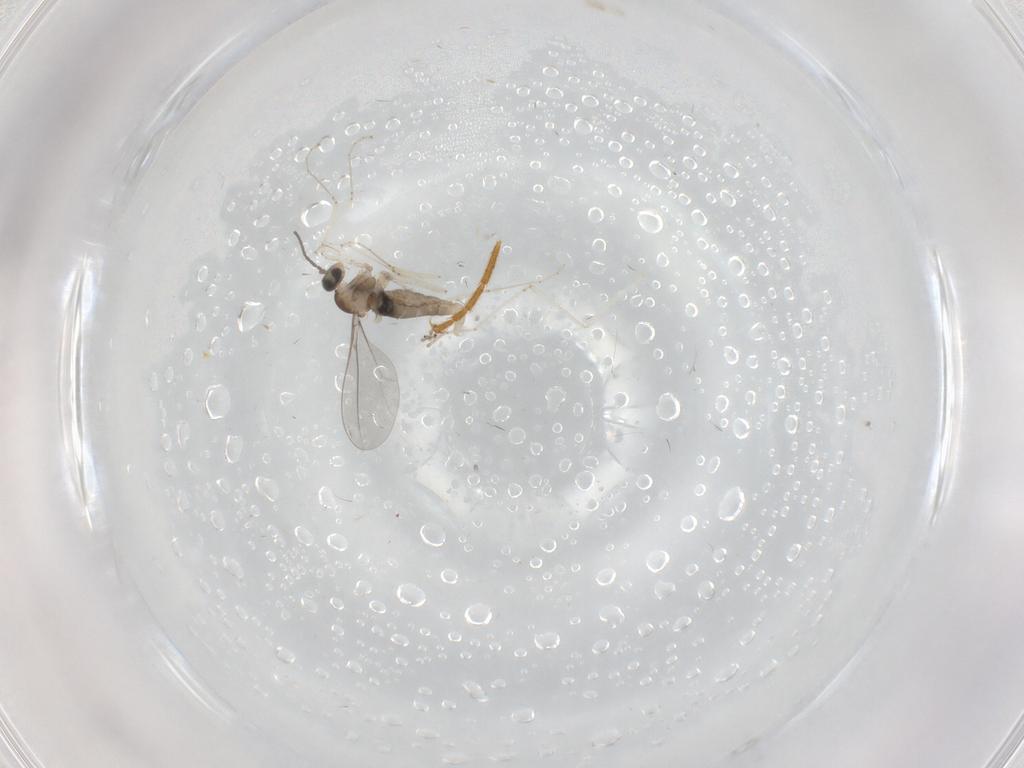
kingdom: Animalia
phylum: Arthropoda
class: Insecta
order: Diptera
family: Cecidomyiidae
